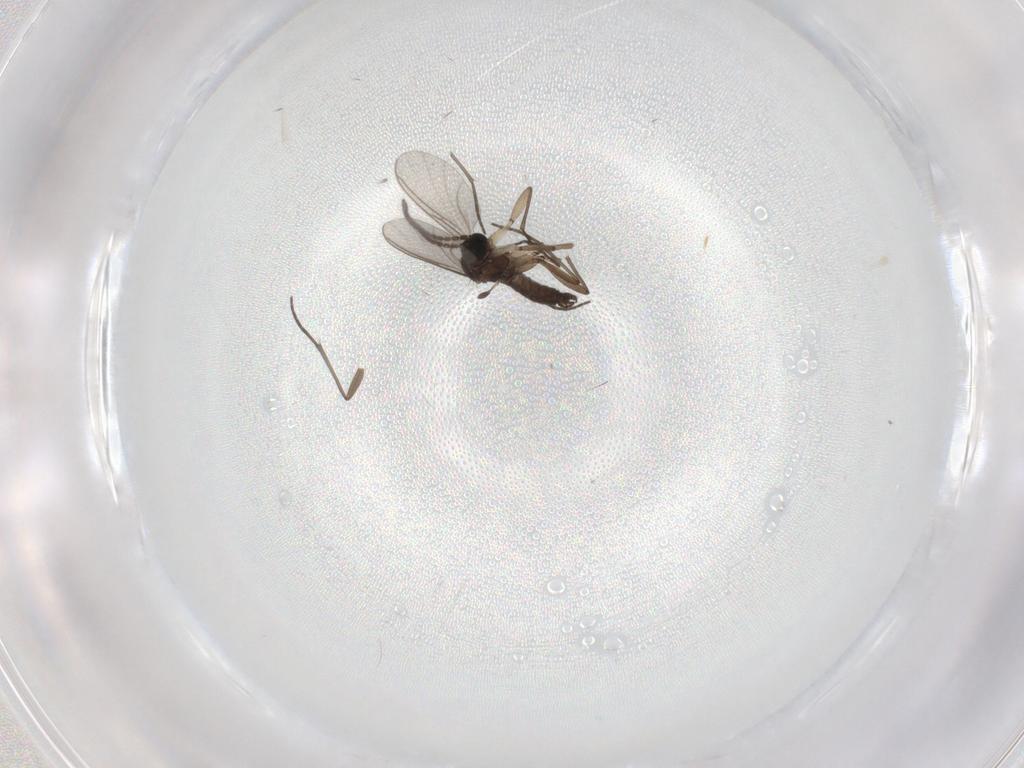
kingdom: Animalia
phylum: Arthropoda
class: Insecta
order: Diptera
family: Sciaridae
